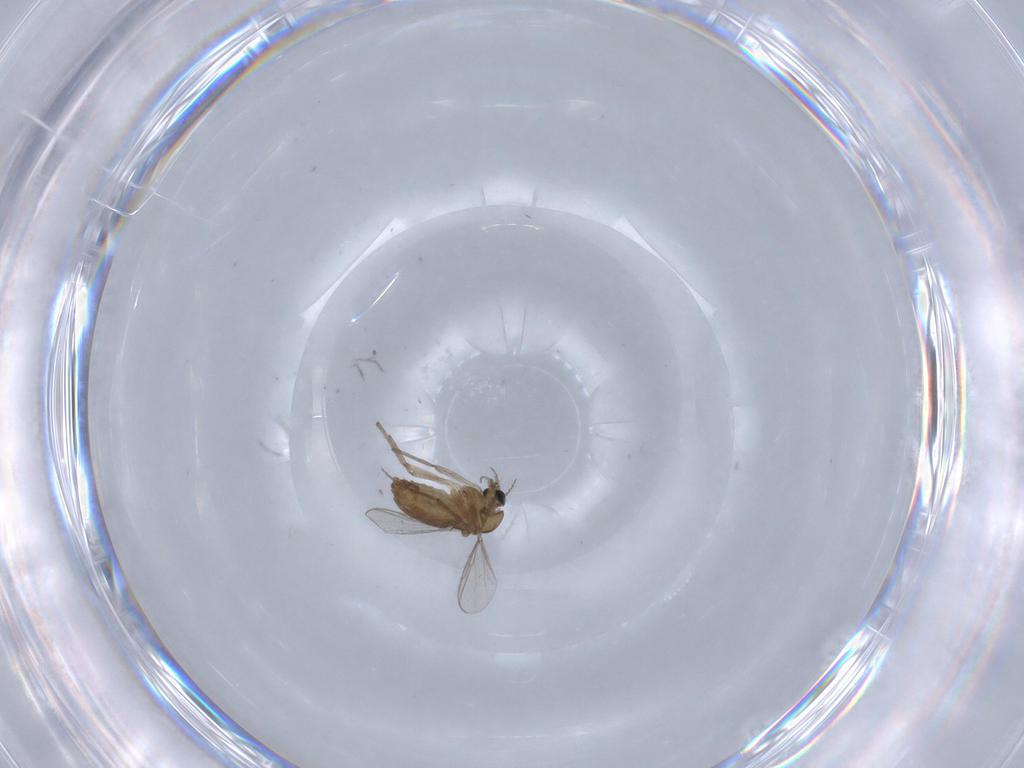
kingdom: Animalia
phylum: Arthropoda
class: Insecta
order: Diptera
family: Chironomidae
